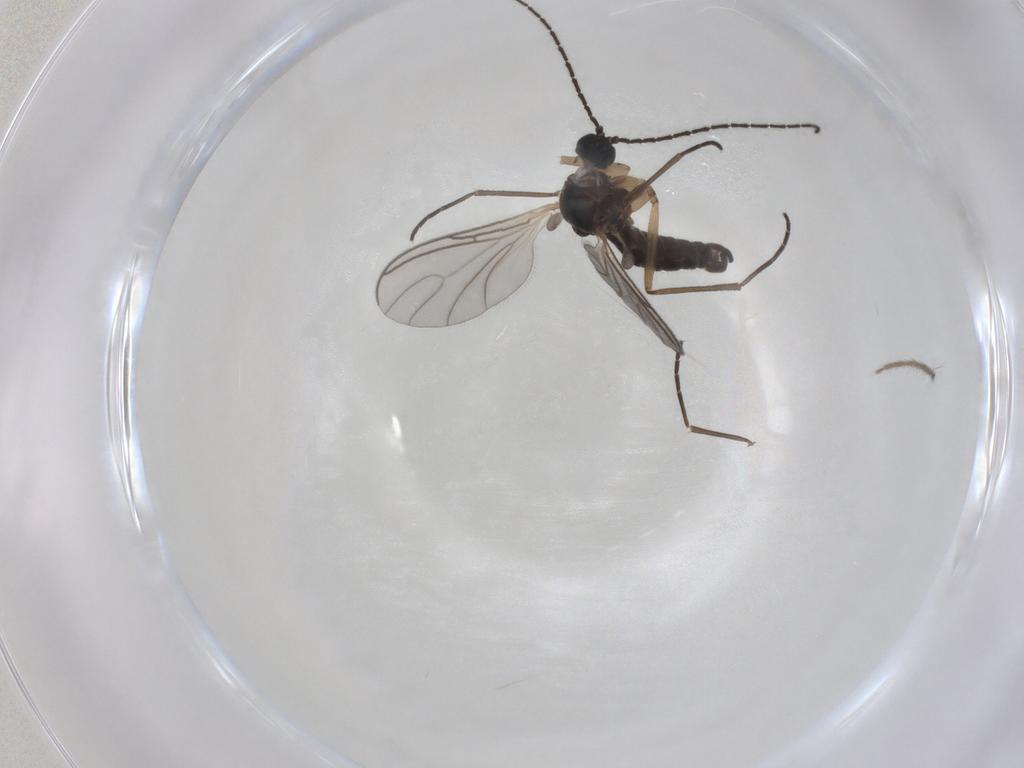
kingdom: Animalia
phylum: Arthropoda
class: Insecta
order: Diptera
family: Sciaridae
